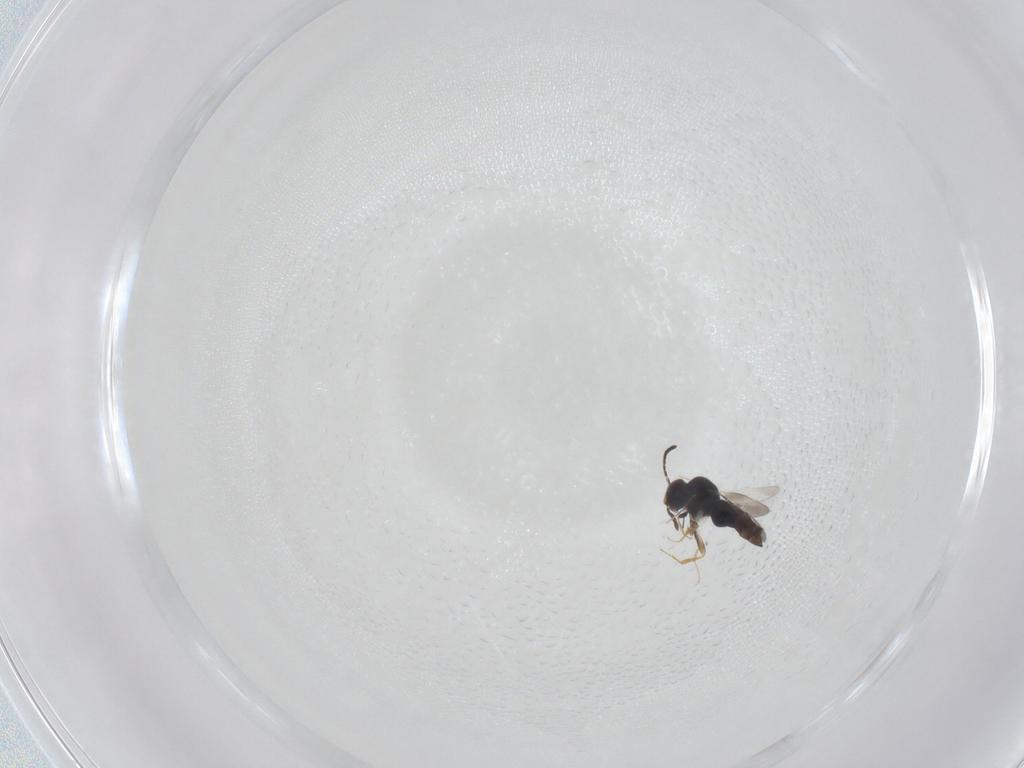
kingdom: Animalia
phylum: Arthropoda
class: Insecta
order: Hymenoptera
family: Ceraphronidae
